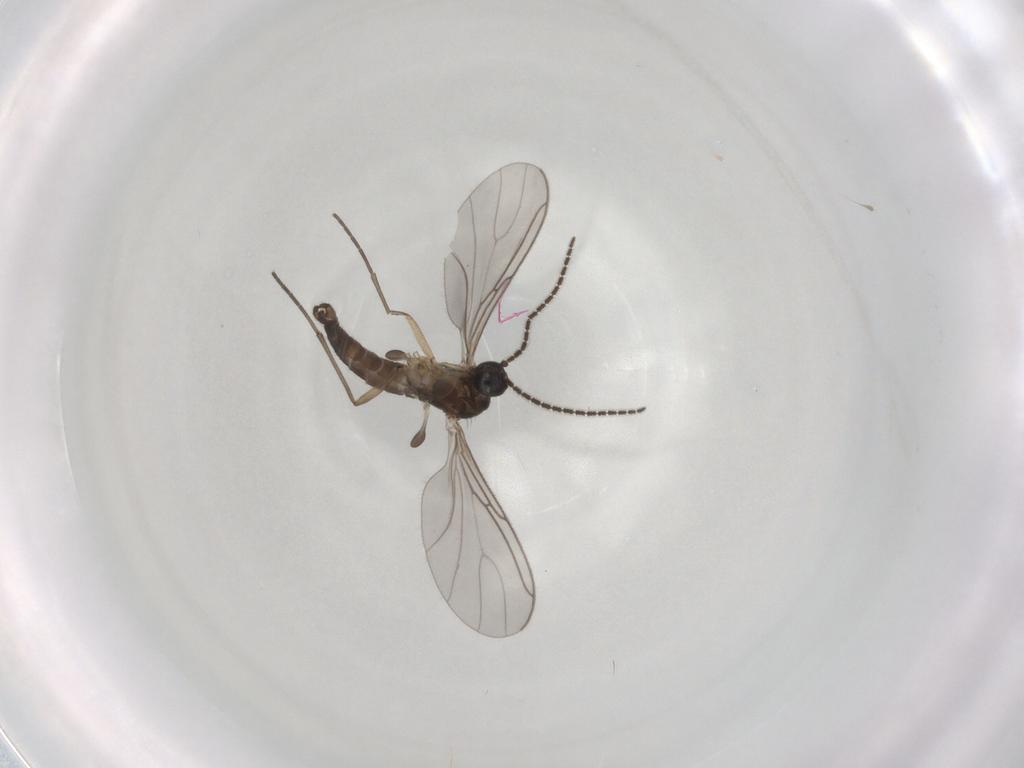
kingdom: Animalia
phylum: Arthropoda
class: Insecta
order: Diptera
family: Sciaridae
